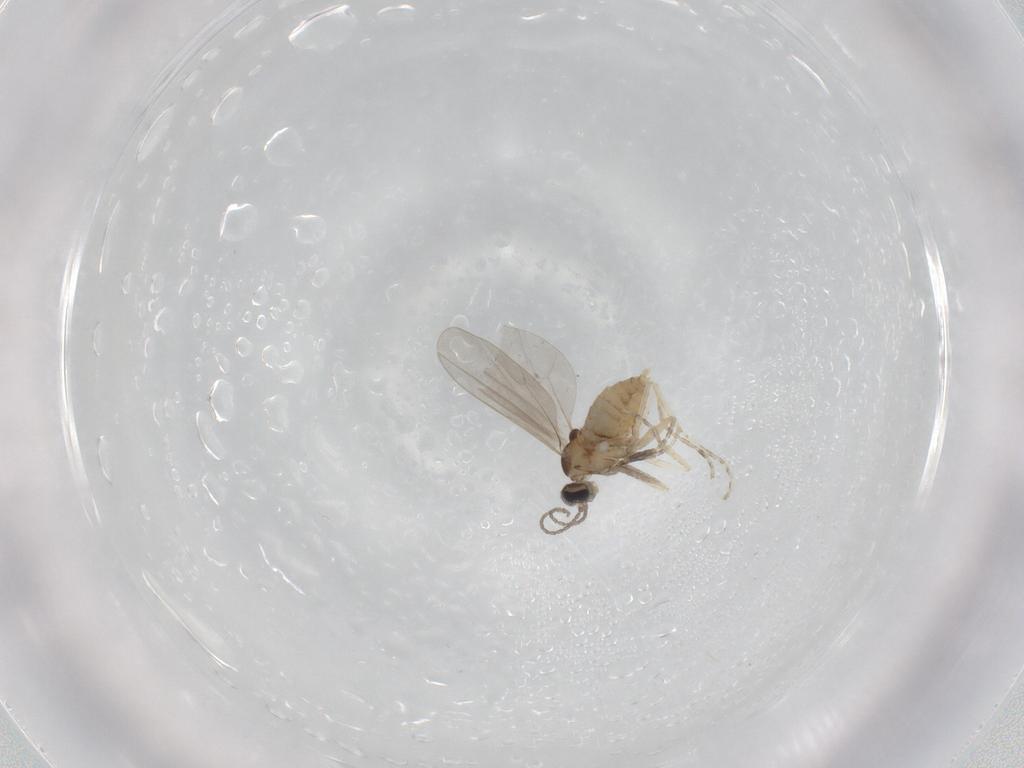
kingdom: Animalia
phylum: Arthropoda
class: Insecta
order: Diptera
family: Cecidomyiidae
